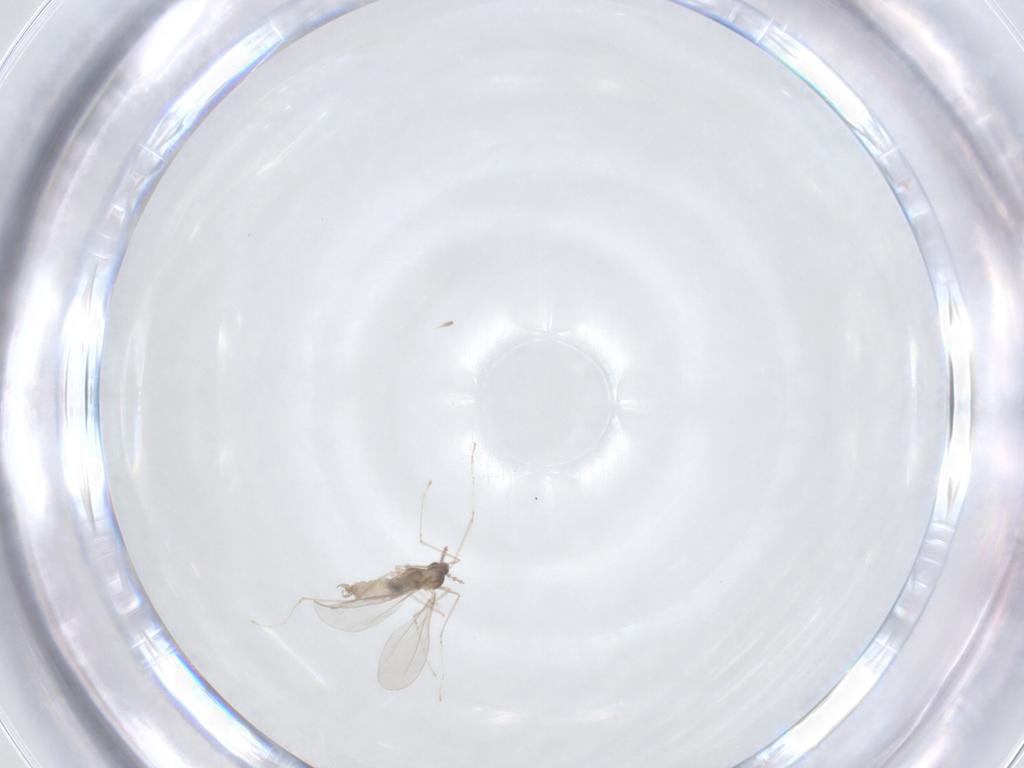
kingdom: Animalia
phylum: Arthropoda
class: Insecta
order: Diptera
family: Cecidomyiidae
